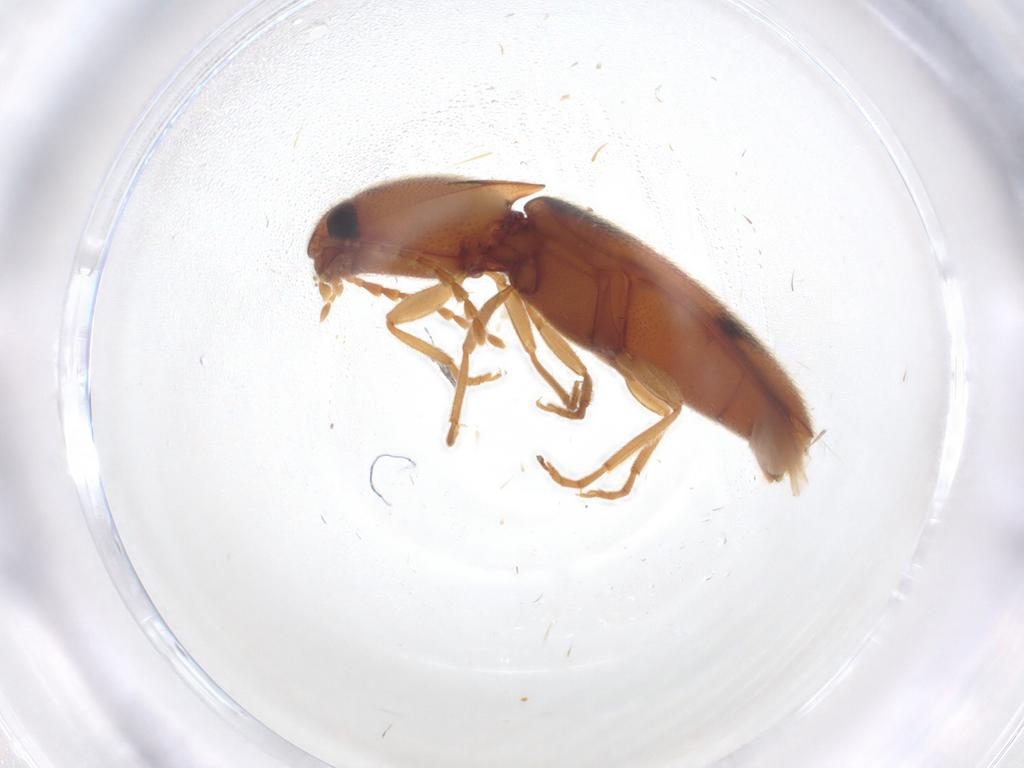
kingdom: Animalia
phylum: Arthropoda
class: Insecta
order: Coleoptera
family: Elateridae
